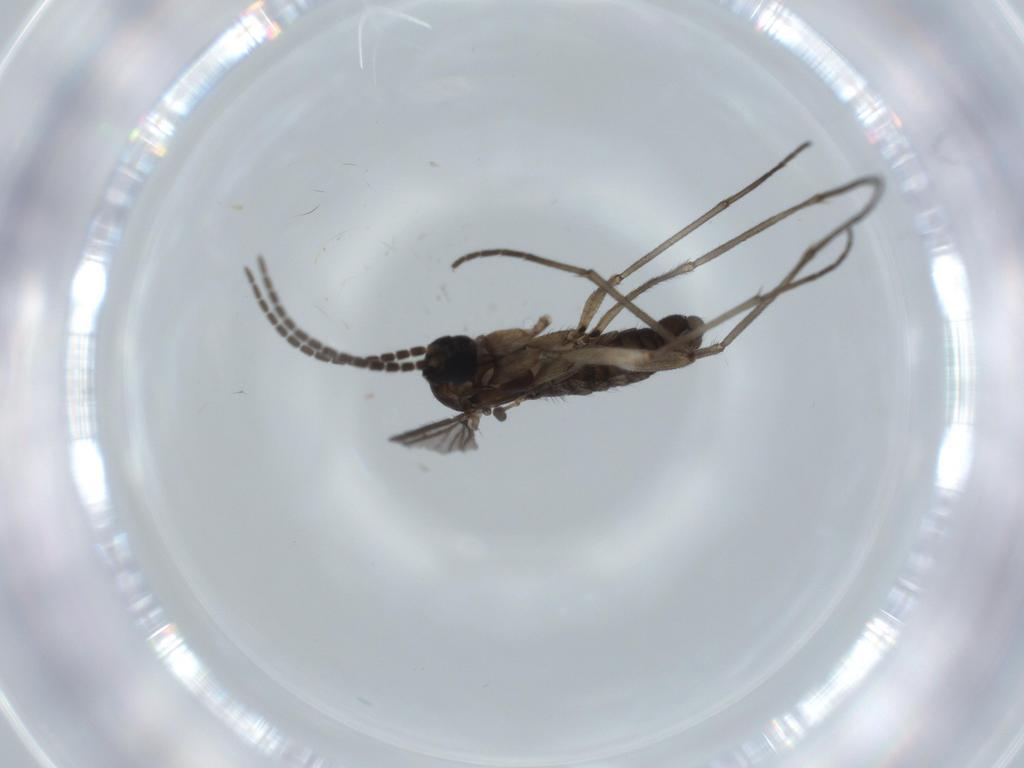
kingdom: Animalia
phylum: Arthropoda
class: Insecta
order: Diptera
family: Sciaridae
